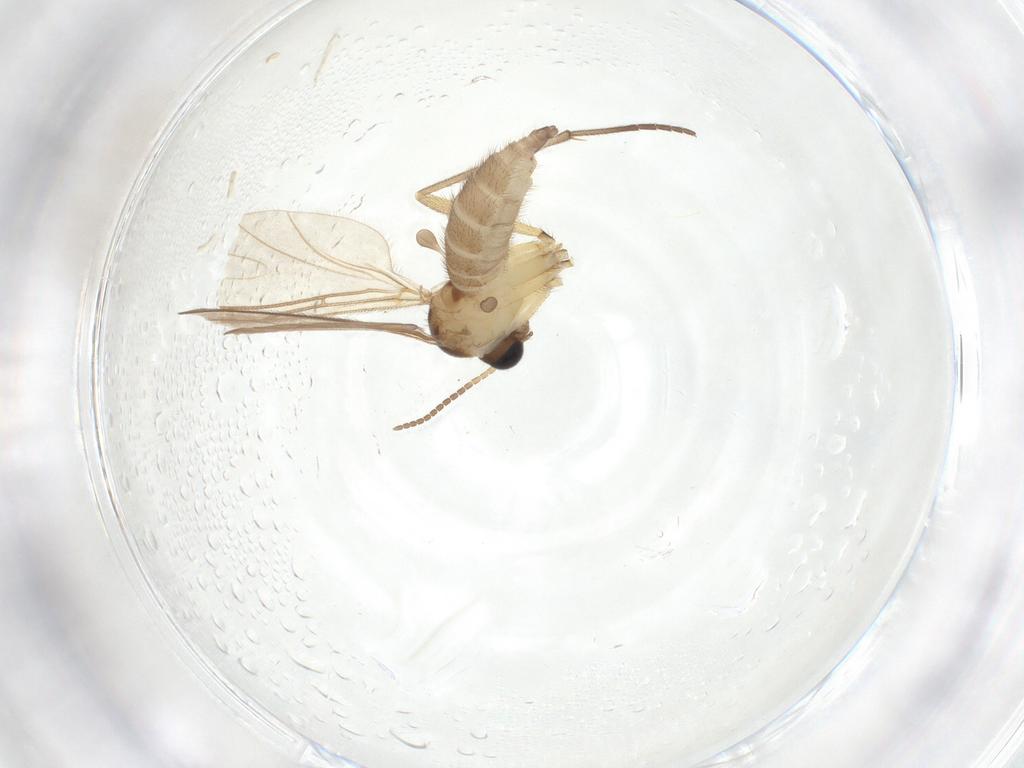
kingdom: Animalia
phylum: Arthropoda
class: Insecta
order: Diptera
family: Sciaridae
